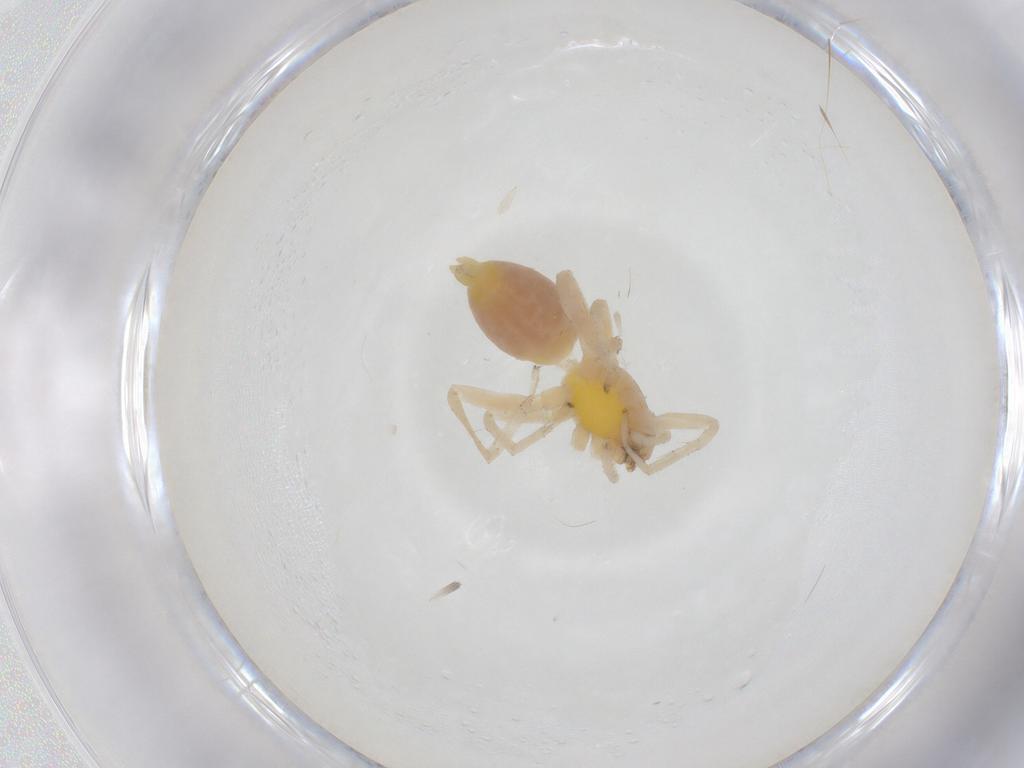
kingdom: Animalia
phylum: Arthropoda
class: Arachnida
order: Araneae
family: Clubionidae
